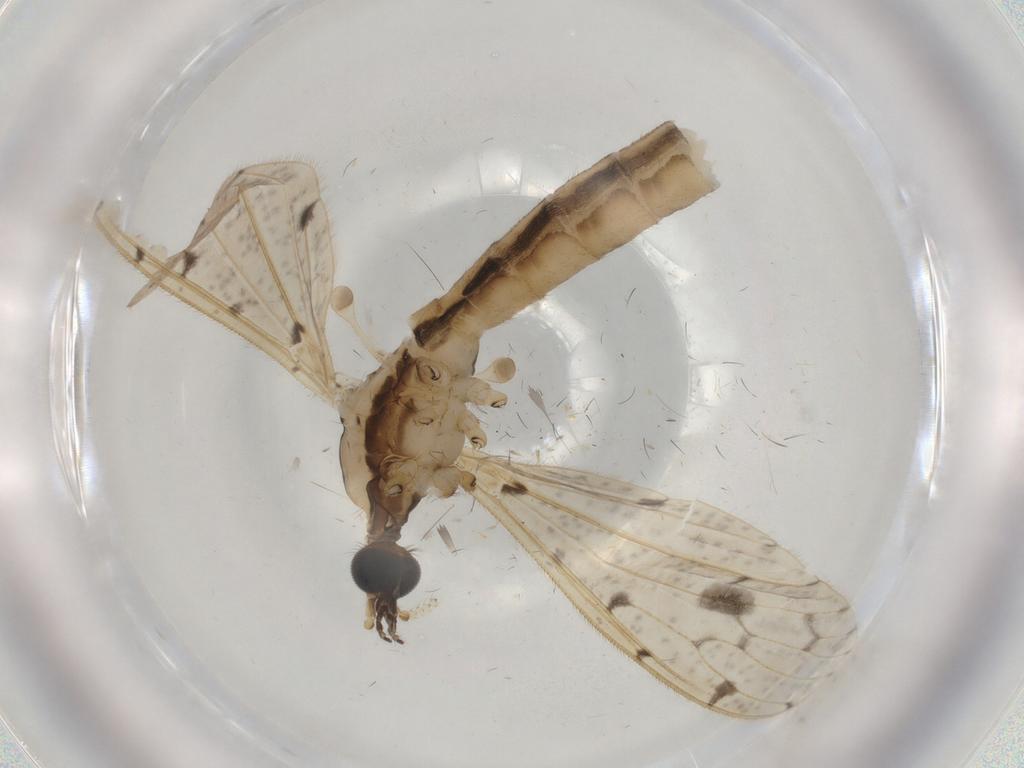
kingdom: Animalia
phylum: Arthropoda
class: Insecta
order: Diptera
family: Limoniidae
